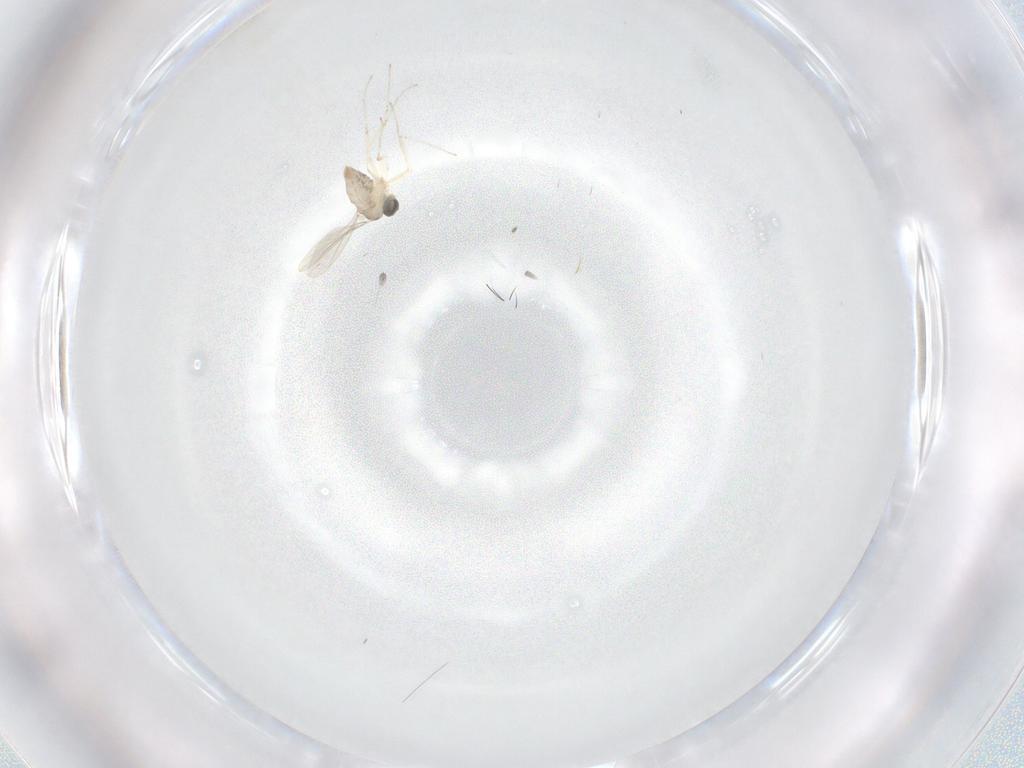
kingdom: Animalia
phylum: Arthropoda
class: Insecta
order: Diptera
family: Cecidomyiidae
